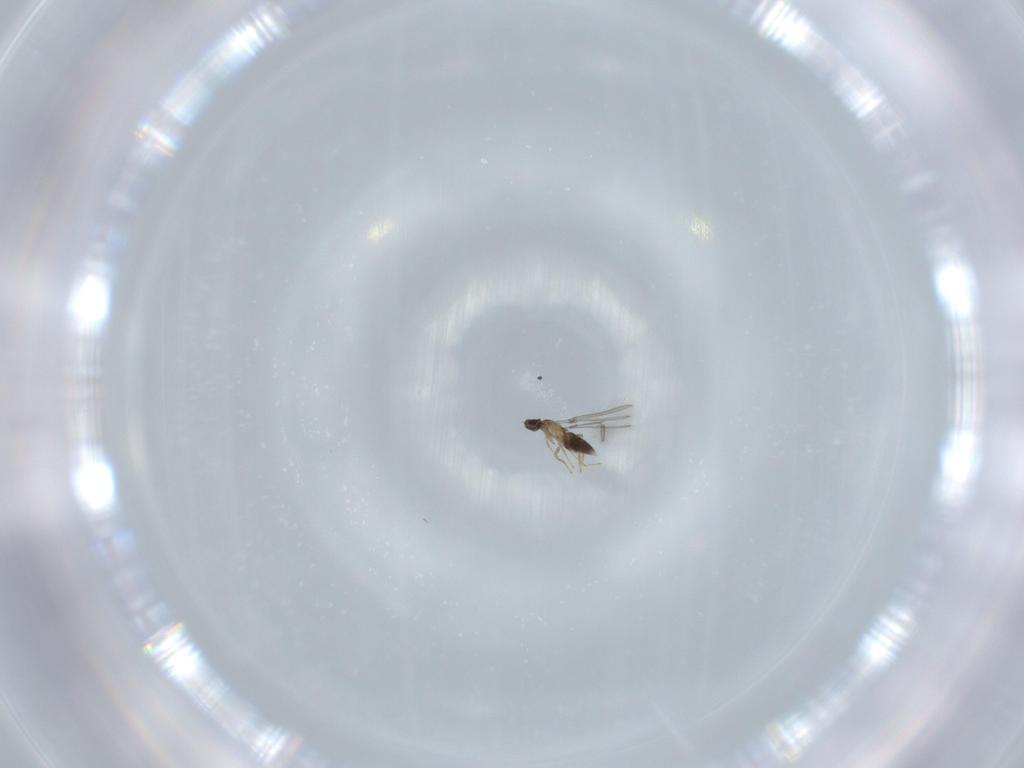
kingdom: Animalia
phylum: Arthropoda
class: Insecta
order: Hymenoptera
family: Mymaridae
